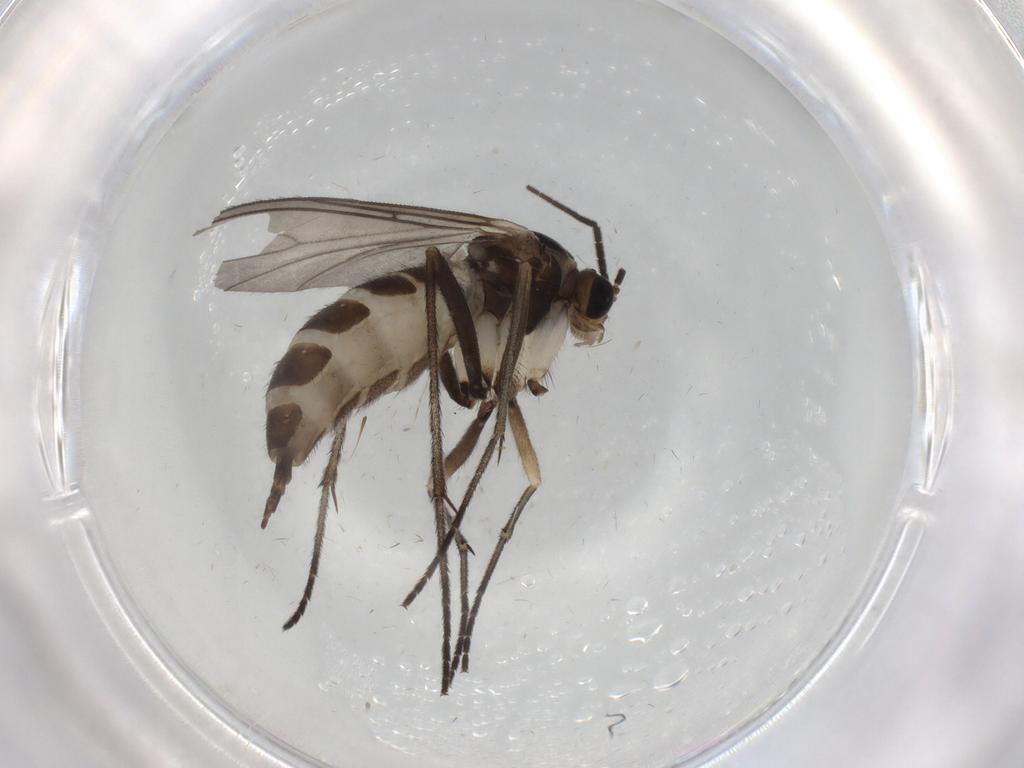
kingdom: Animalia
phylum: Arthropoda
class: Insecta
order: Diptera
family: Sciaridae
